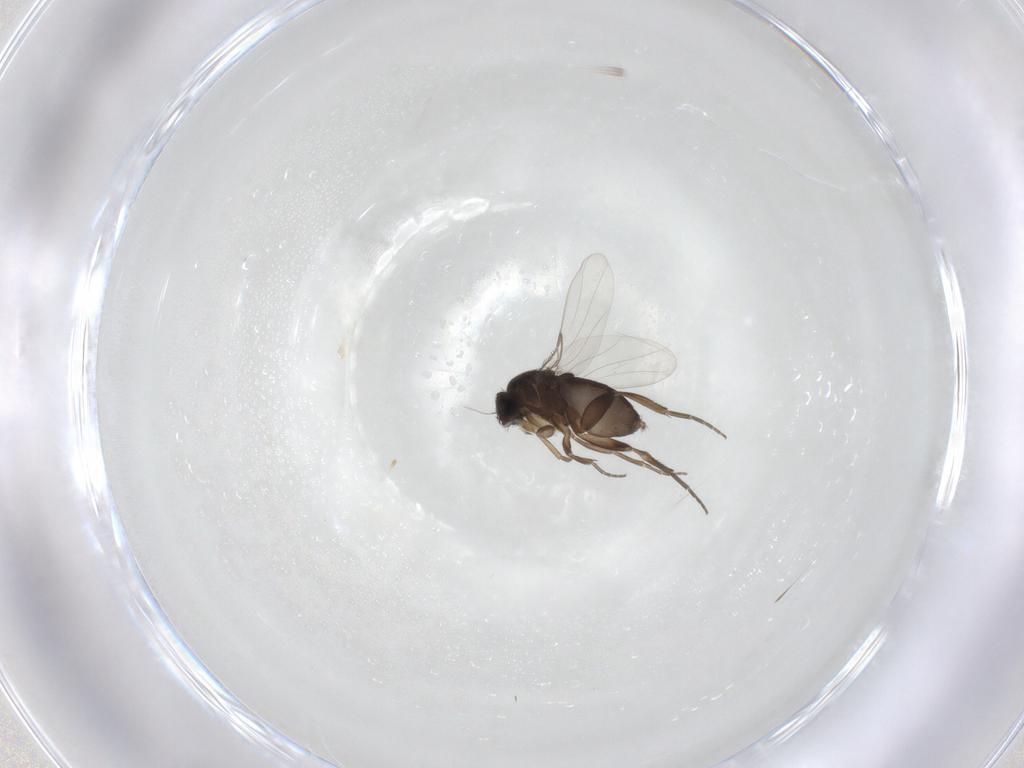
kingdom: Animalia
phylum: Arthropoda
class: Insecta
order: Diptera
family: Phoridae
